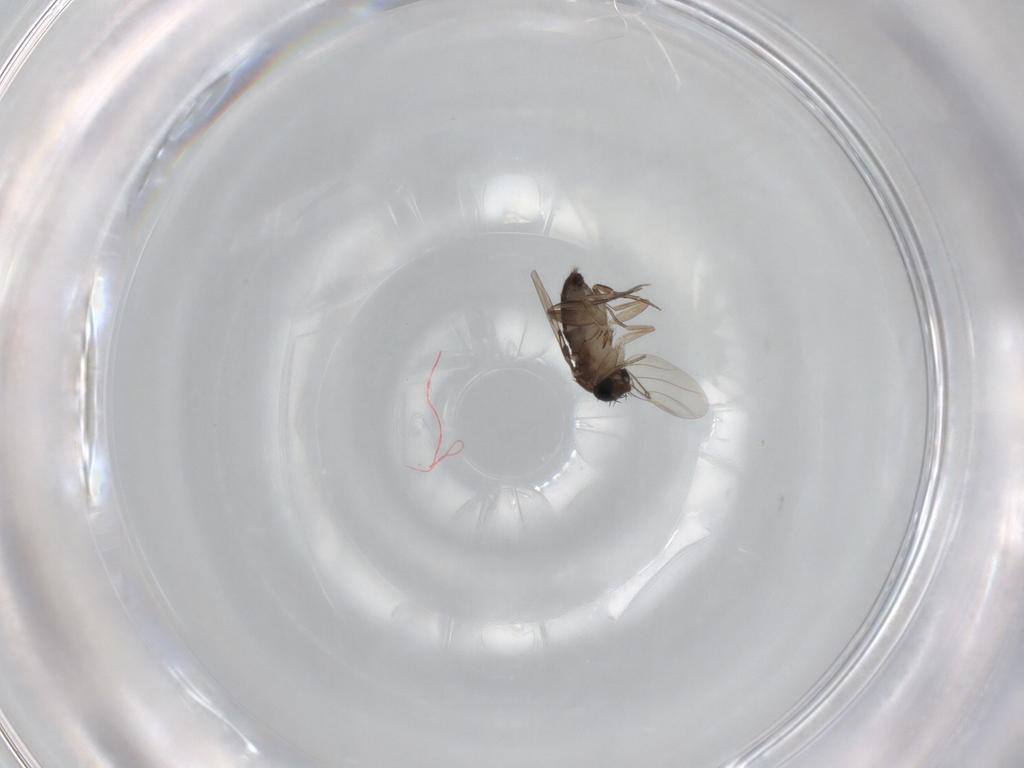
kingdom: Animalia
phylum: Arthropoda
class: Insecta
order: Diptera
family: Phoridae
